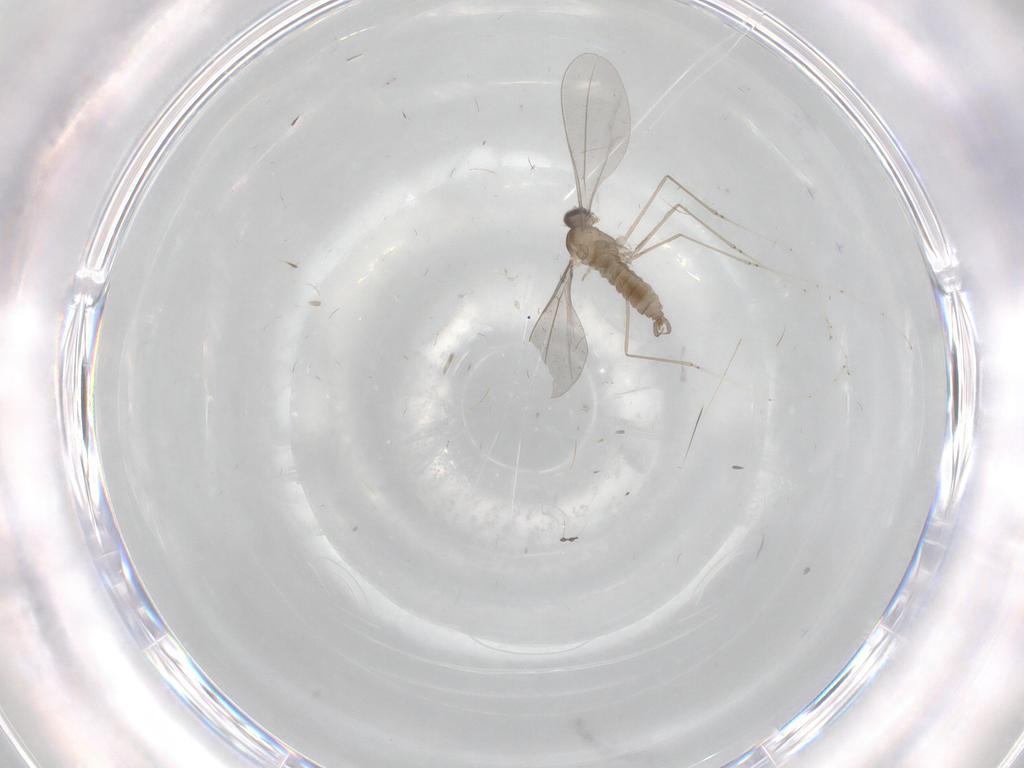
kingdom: Animalia
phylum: Arthropoda
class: Insecta
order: Diptera
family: Cecidomyiidae
